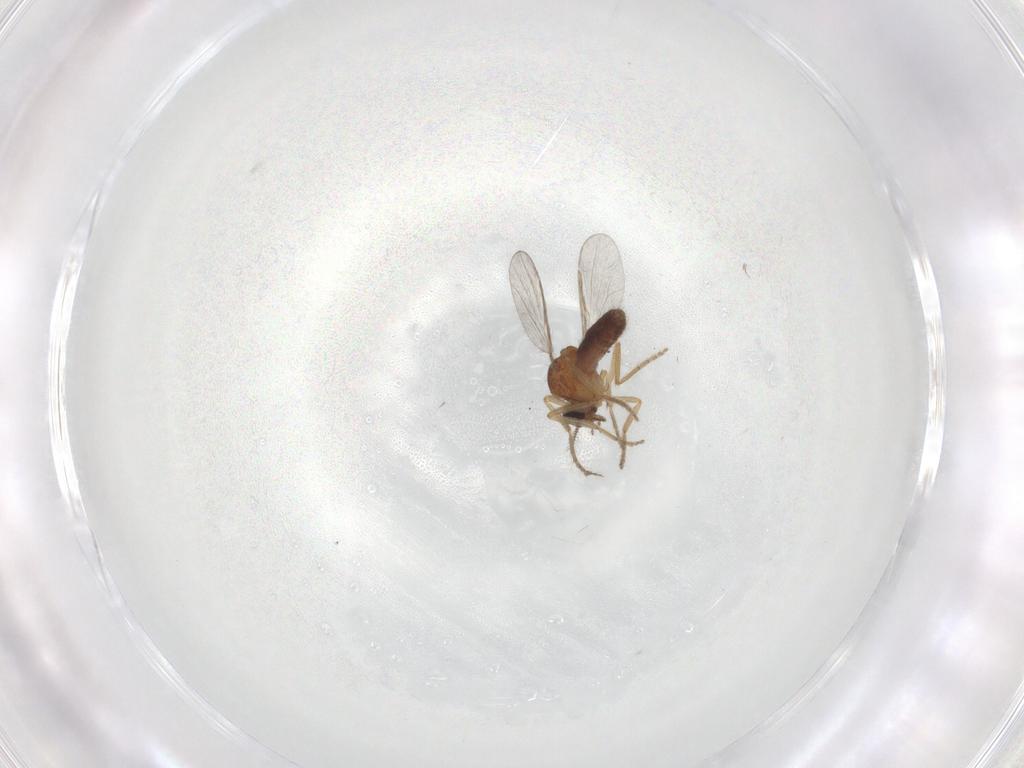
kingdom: Animalia
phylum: Arthropoda
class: Insecta
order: Diptera
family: Ceratopogonidae
